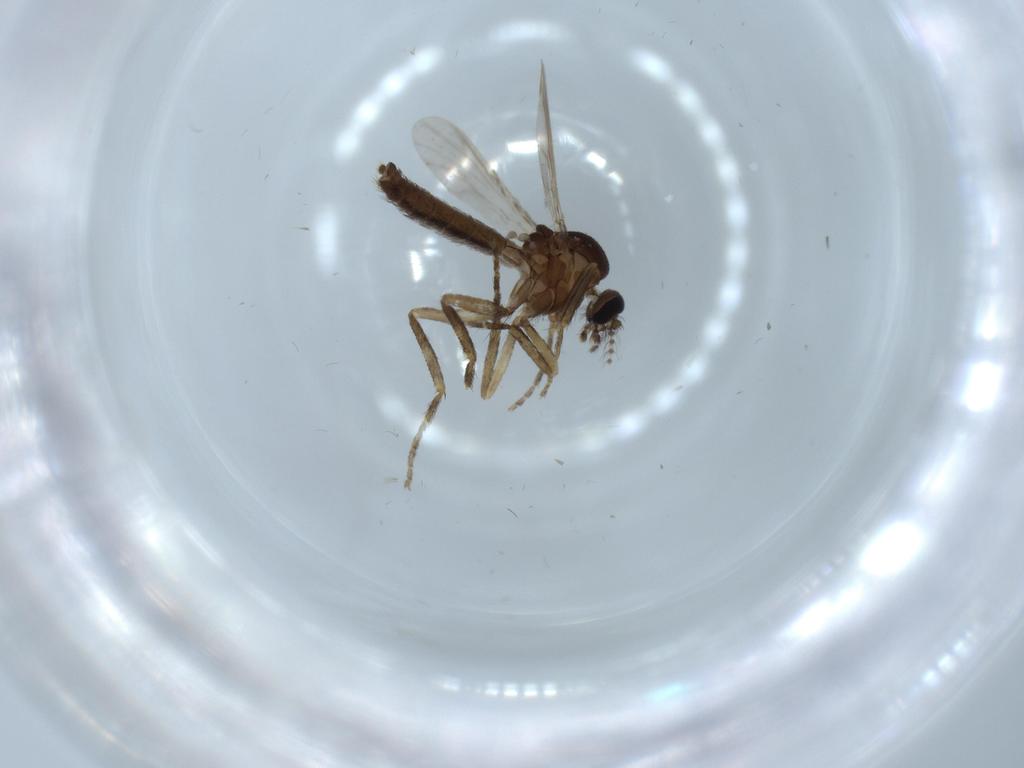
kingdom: Animalia
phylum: Arthropoda
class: Insecta
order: Diptera
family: Ceratopogonidae
